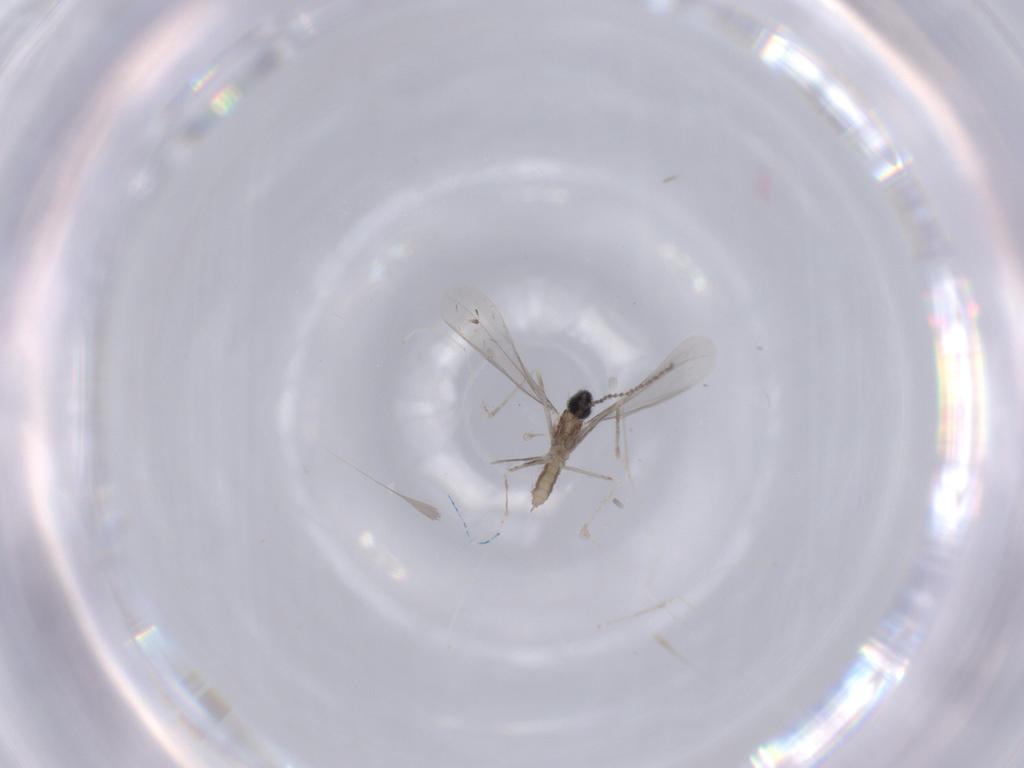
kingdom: Animalia
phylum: Arthropoda
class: Insecta
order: Diptera
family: Cecidomyiidae
